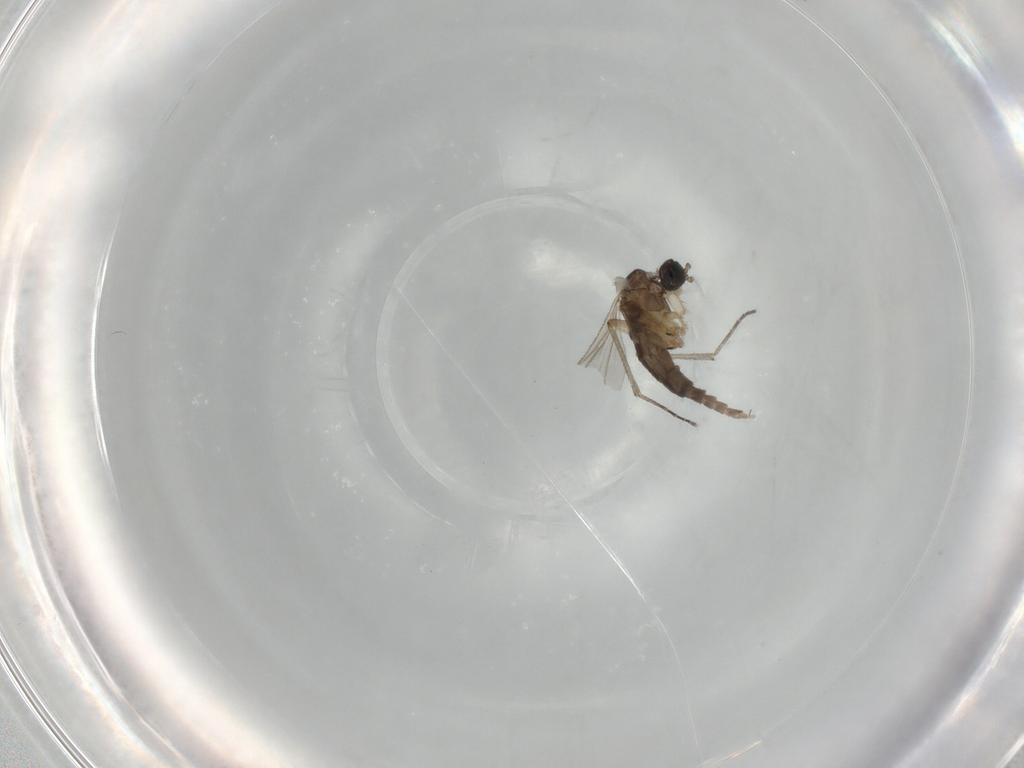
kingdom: Animalia
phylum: Arthropoda
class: Insecta
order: Diptera
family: Sciaridae
